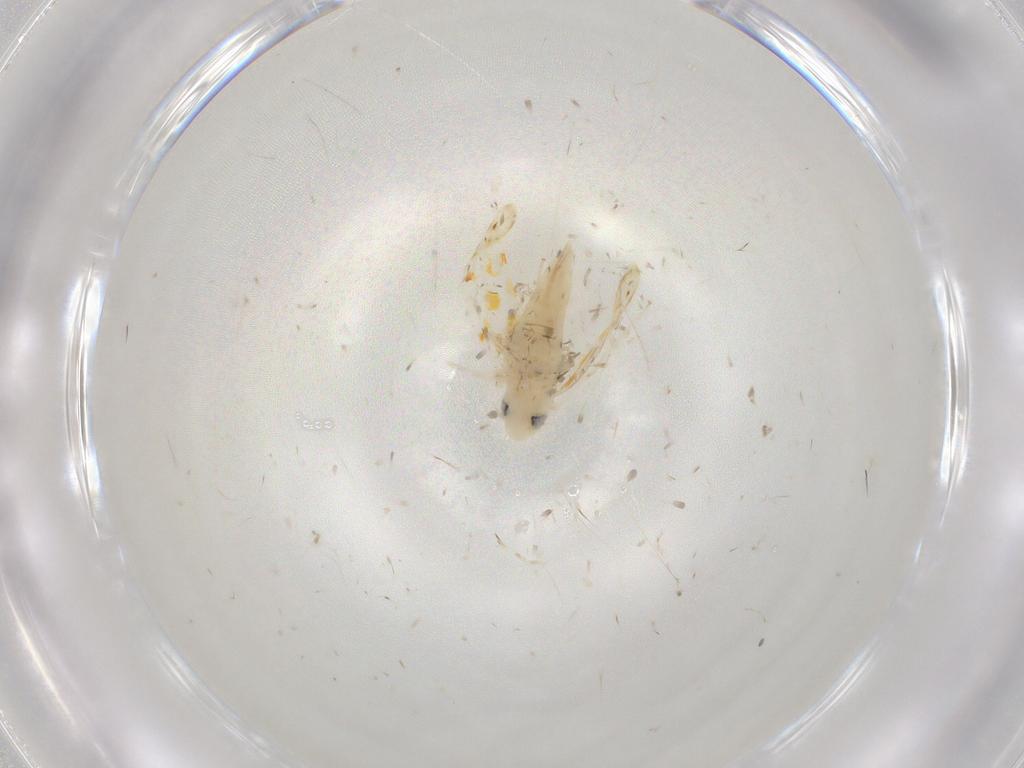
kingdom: Animalia
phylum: Arthropoda
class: Insecta
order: Hemiptera
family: Cicadellidae
